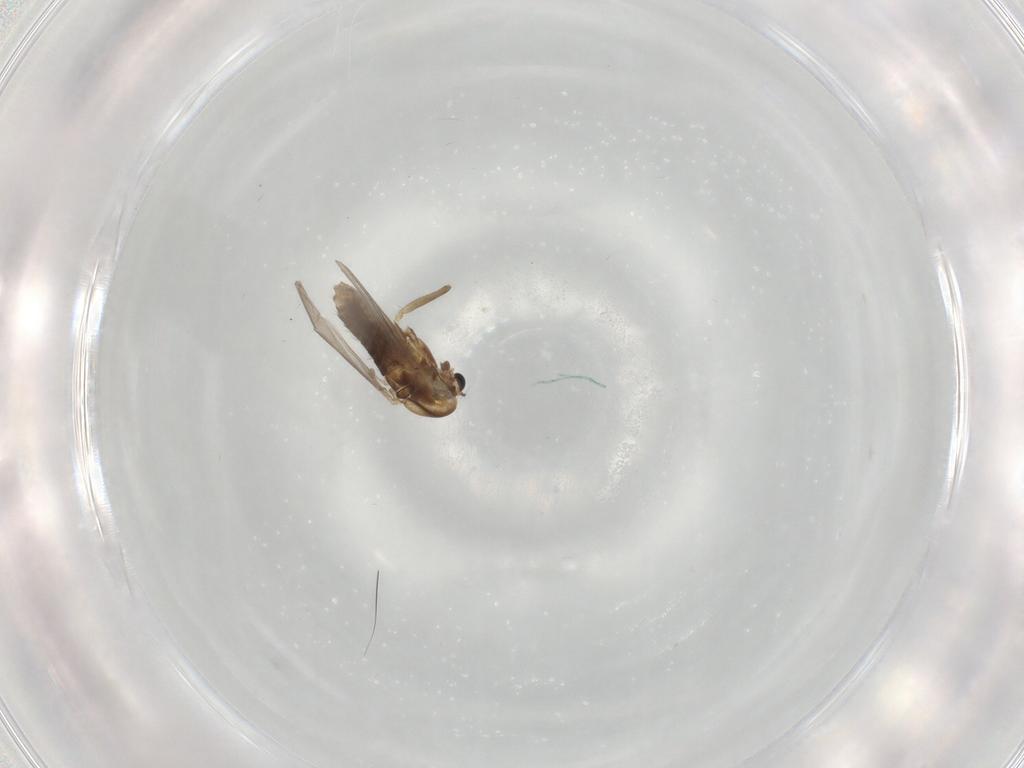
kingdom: Animalia
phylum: Arthropoda
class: Insecta
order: Diptera
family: Chironomidae
